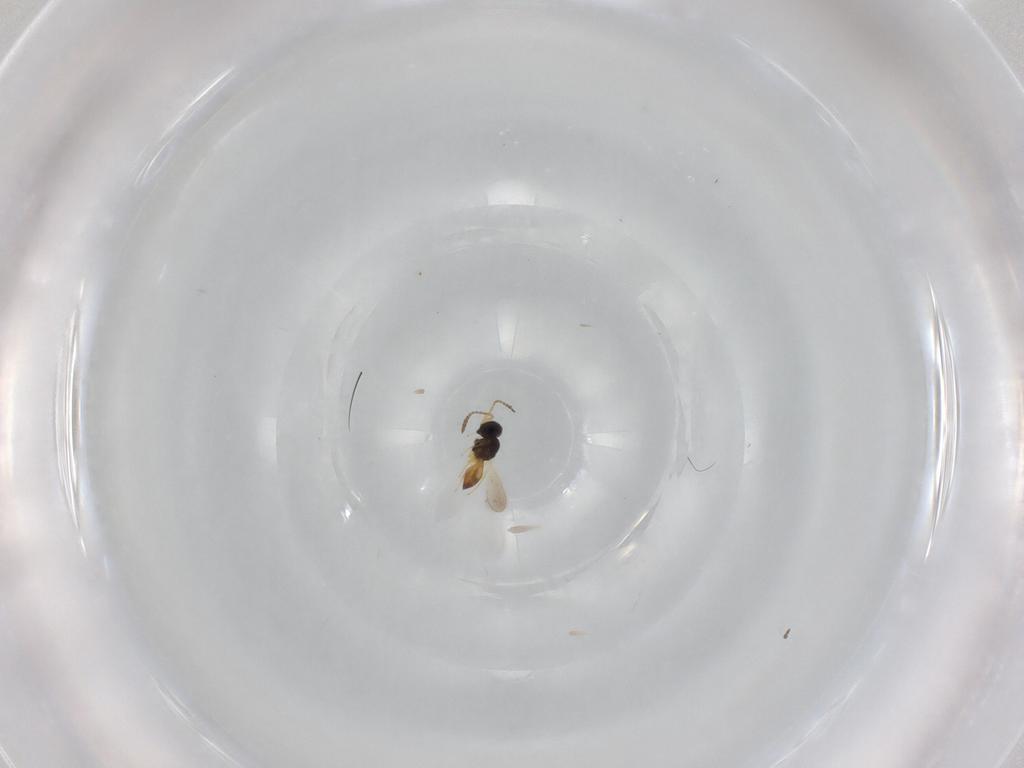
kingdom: Animalia
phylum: Arthropoda
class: Insecta
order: Hymenoptera
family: Scelionidae
